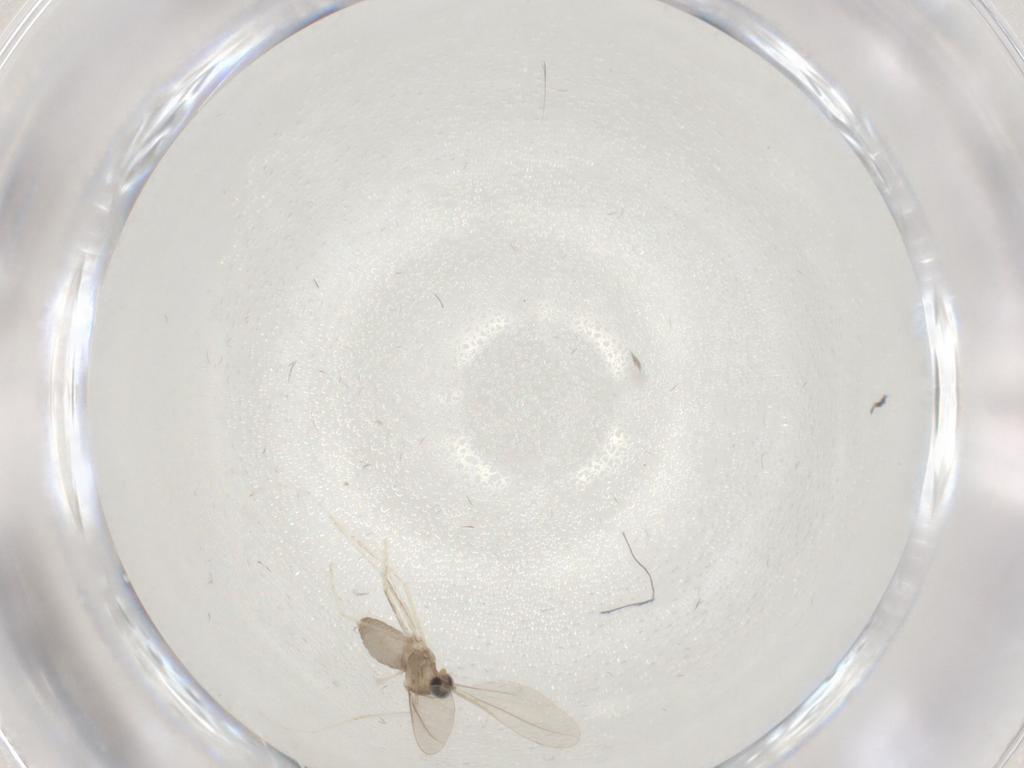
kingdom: Animalia
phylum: Arthropoda
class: Insecta
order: Diptera
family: Ceratopogonidae
